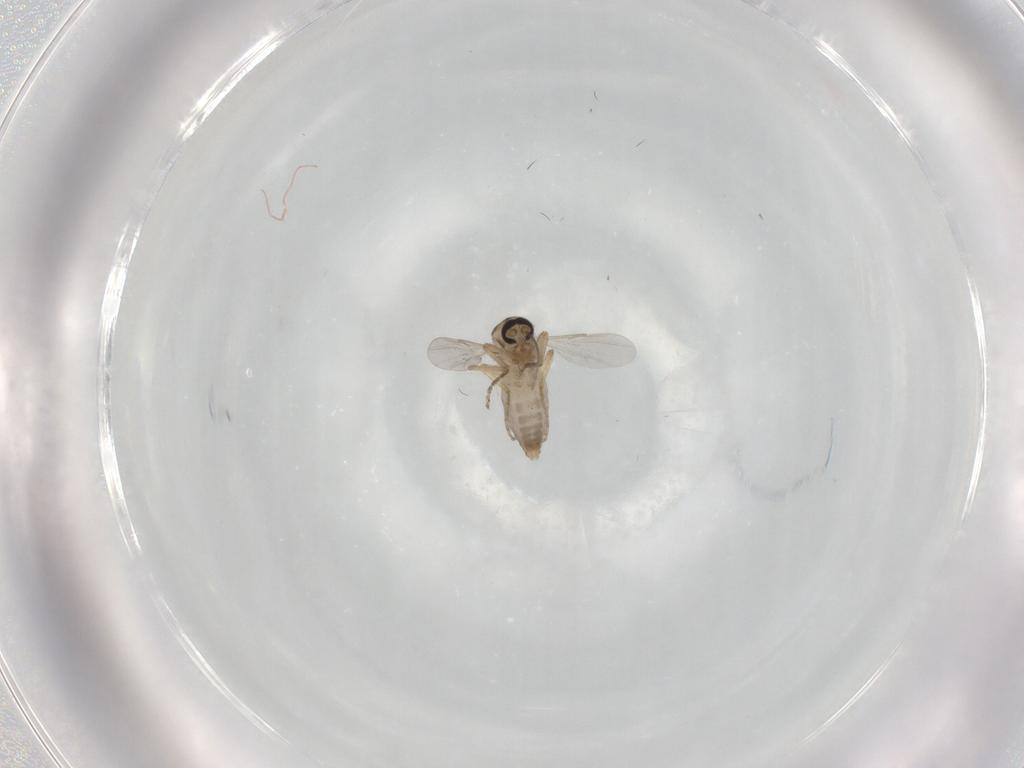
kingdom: Animalia
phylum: Arthropoda
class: Insecta
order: Diptera
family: Ceratopogonidae
